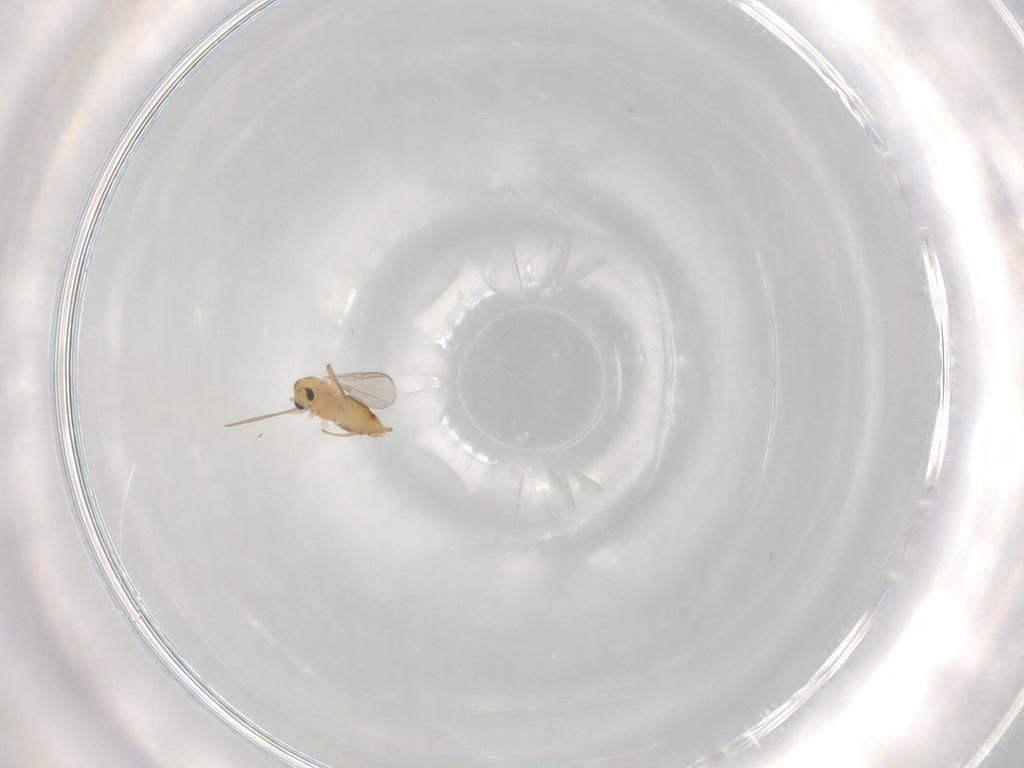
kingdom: Animalia
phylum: Arthropoda
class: Insecta
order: Diptera
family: Chironomidae
